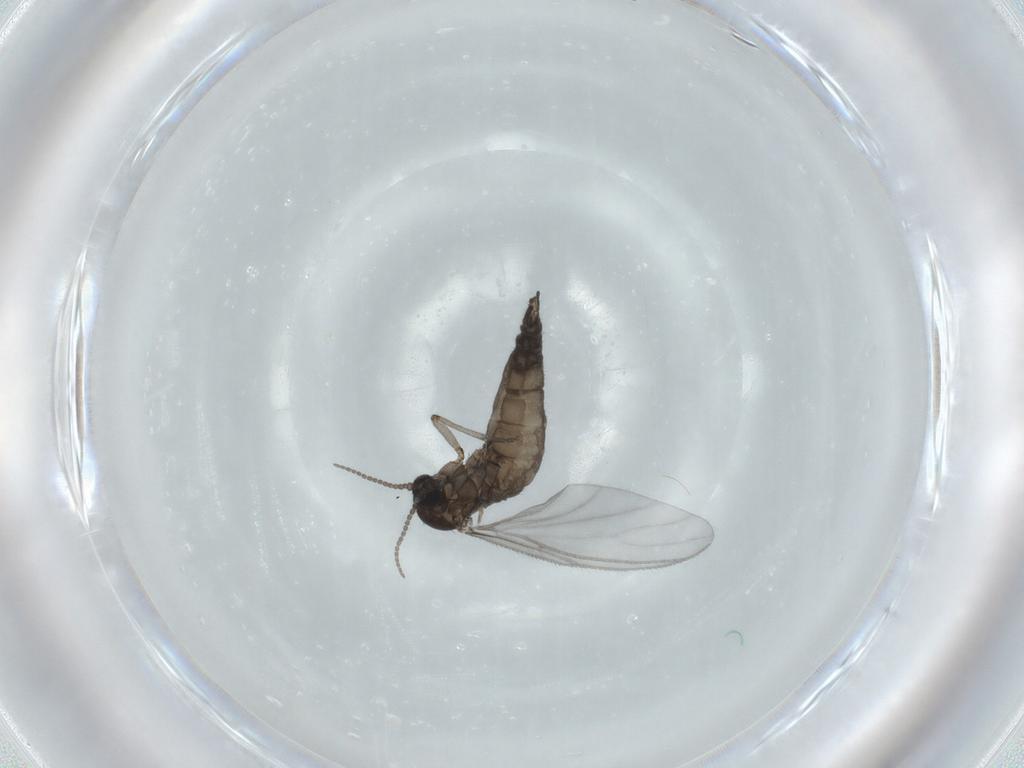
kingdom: Animalia
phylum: Arthropoda
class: Insecta
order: Diptera
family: Sciaridae
